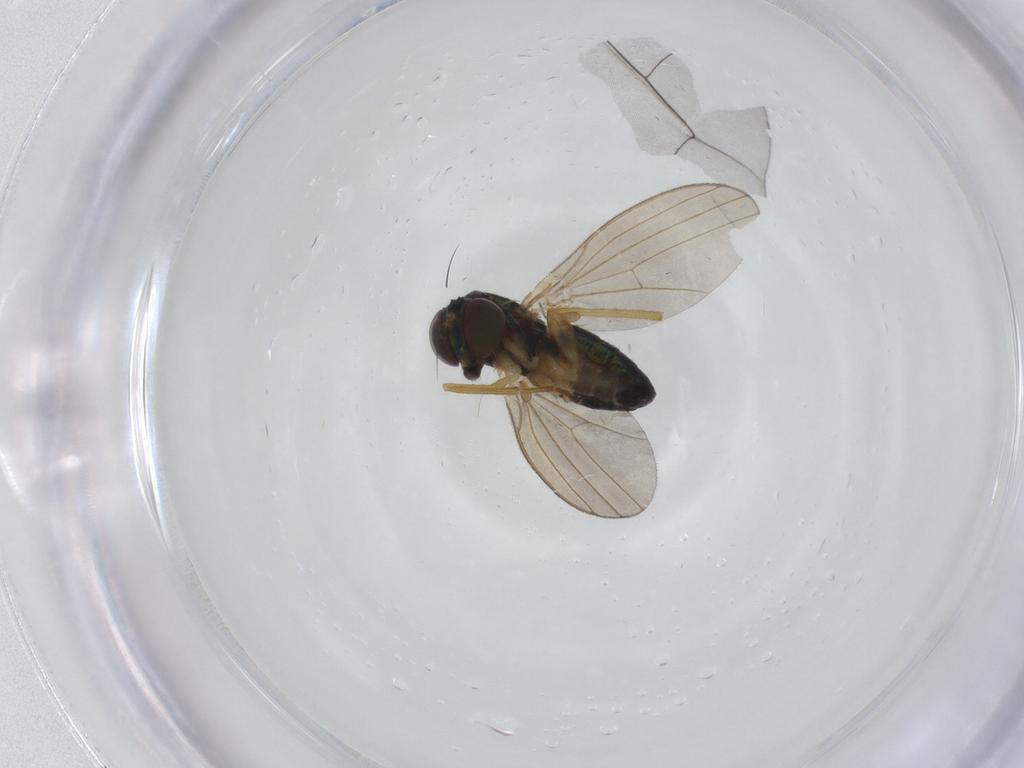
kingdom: Animalia
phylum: Arthropoda
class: Insecta
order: Diptera
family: Dolichopodidae
